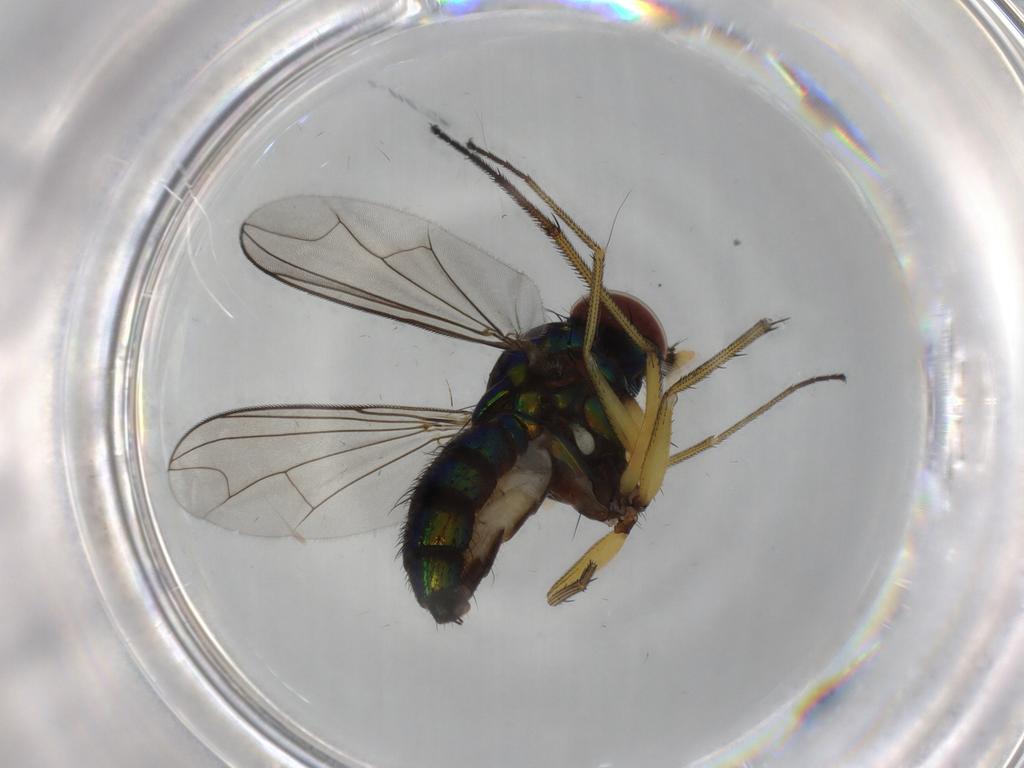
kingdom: Animalia
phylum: Arthropoda
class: Insecta
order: Diptera
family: Dolichopodidae
